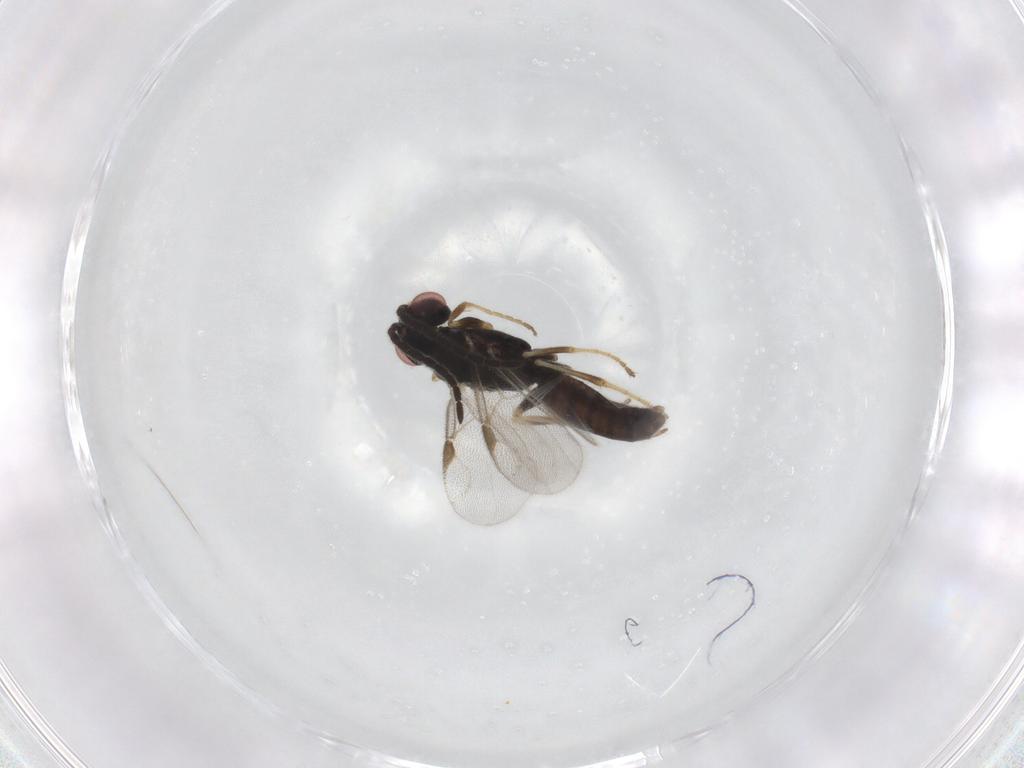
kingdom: Animalia
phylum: Arthropoda
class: Insecta
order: Hymenoptera
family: Dryinidae
